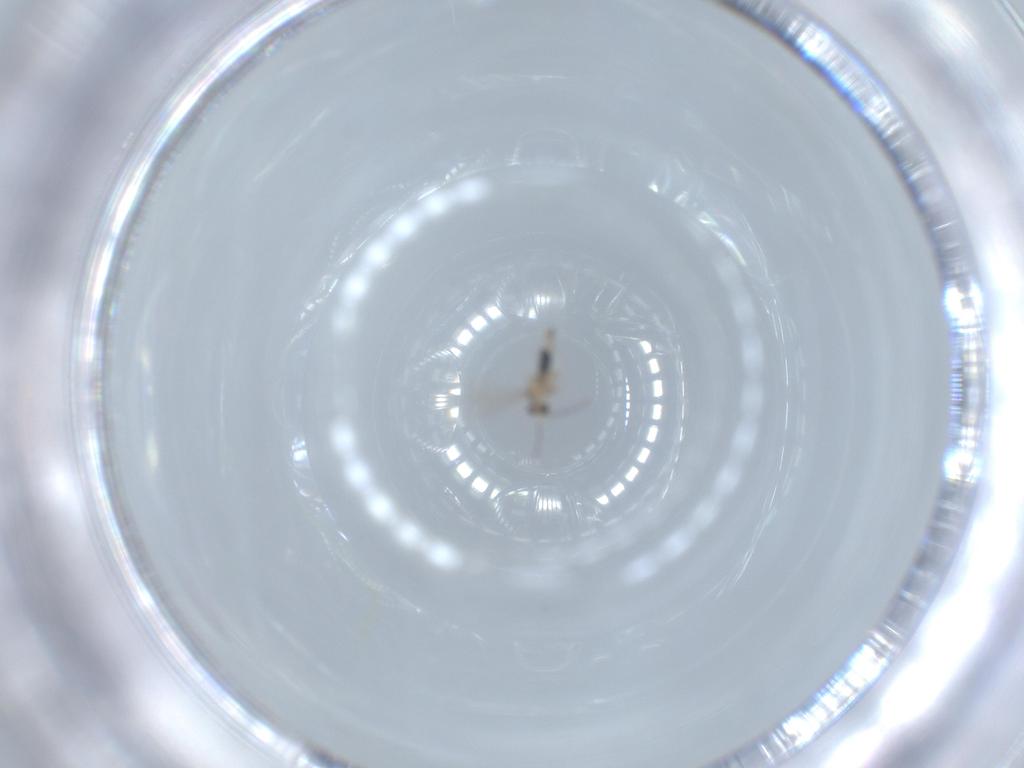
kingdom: Animalia
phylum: Arthropoda
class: Insecta
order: Diptera
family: Cecidomyiidae
